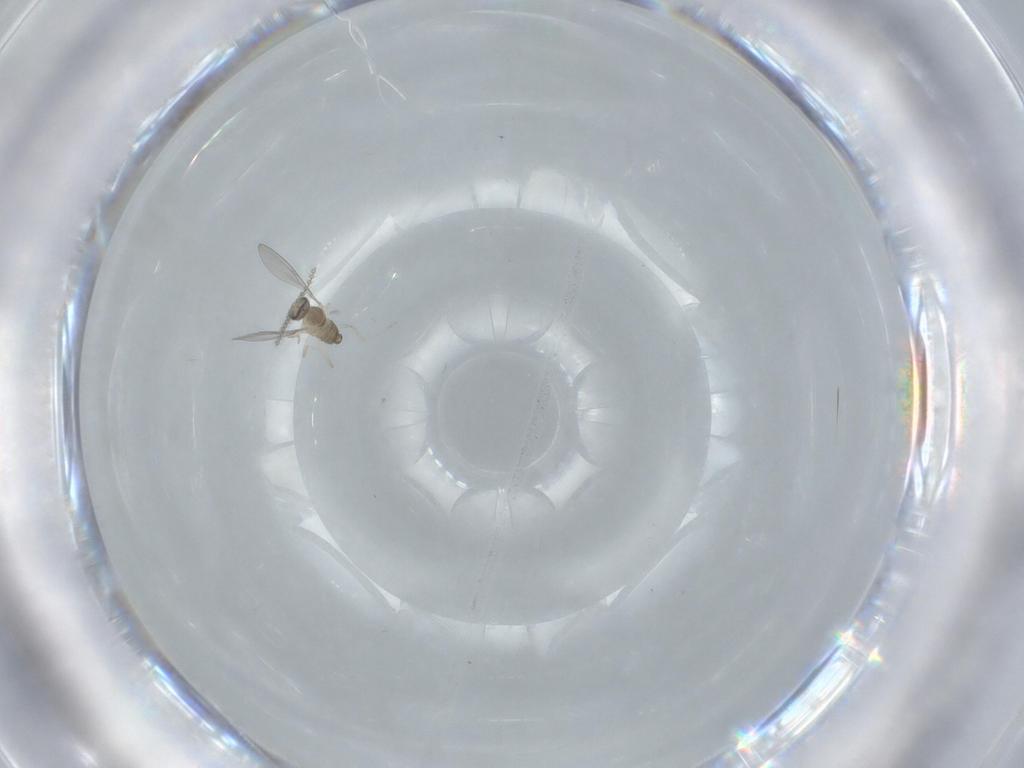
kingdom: Animalia
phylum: Arthropoda
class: Insecta
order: Diptera
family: Cecidomyiidae
